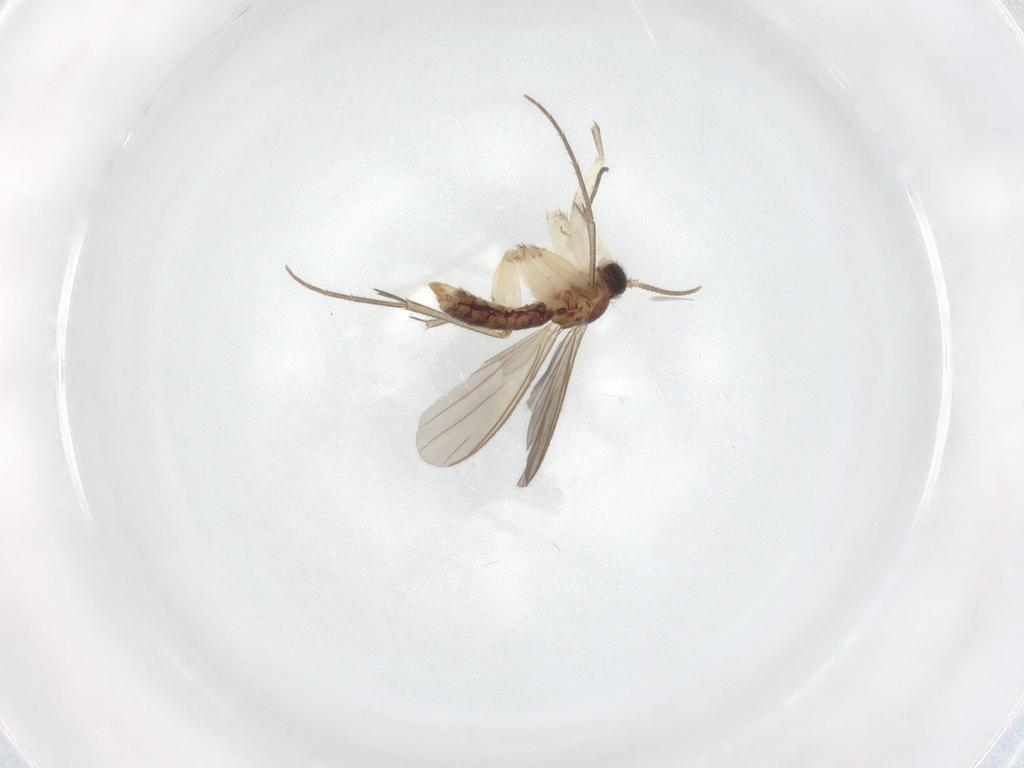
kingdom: Animalia
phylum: Arthropoda
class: Insecta
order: Diptera
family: Mycetophilidae
